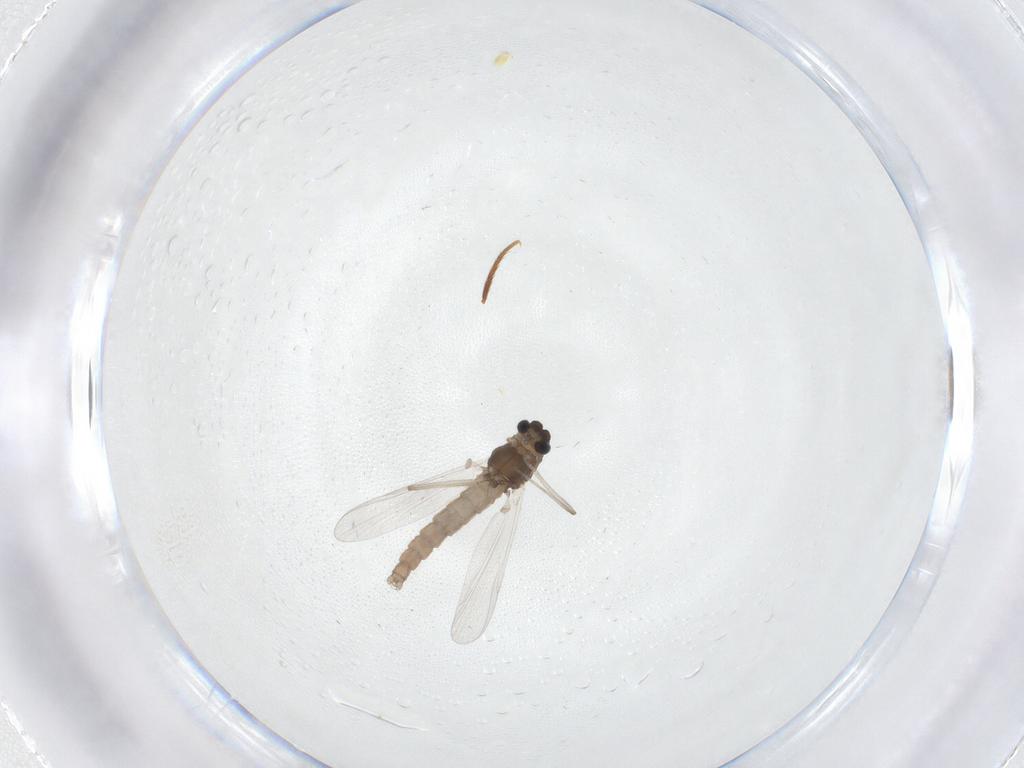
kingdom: Animalia
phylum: Arthropoda
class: Insecta
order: Diptera
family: Chironomidae
